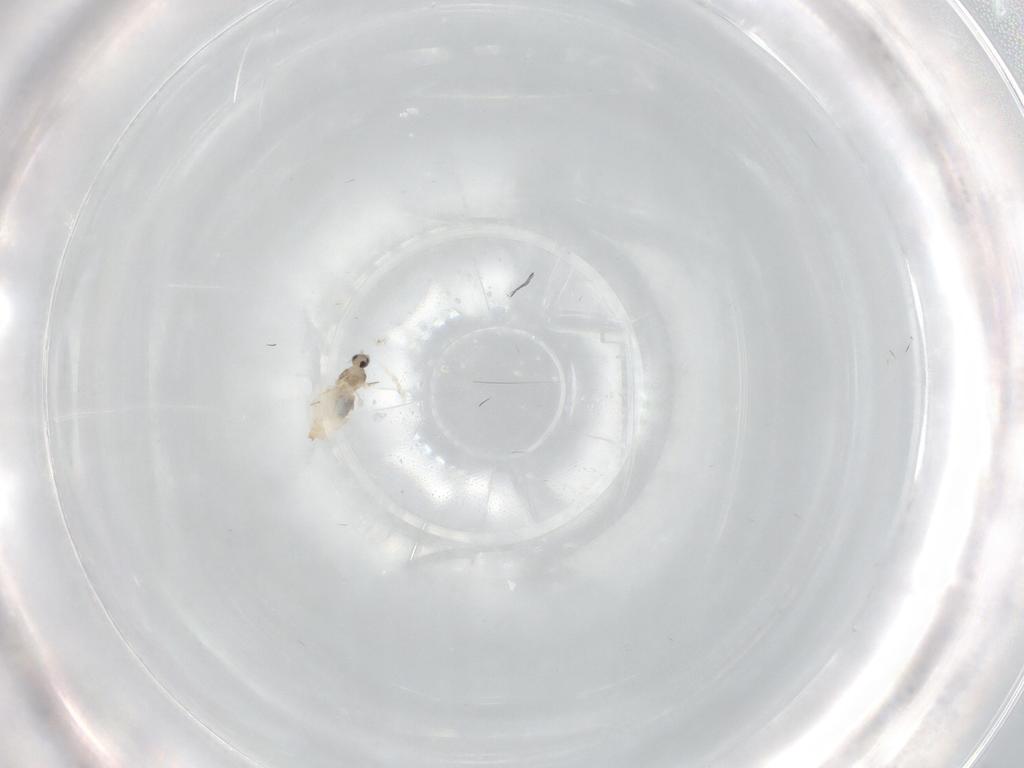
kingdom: Animalia
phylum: Arthropoda
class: Insecta
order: Diptera
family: Cecidomyiidae
